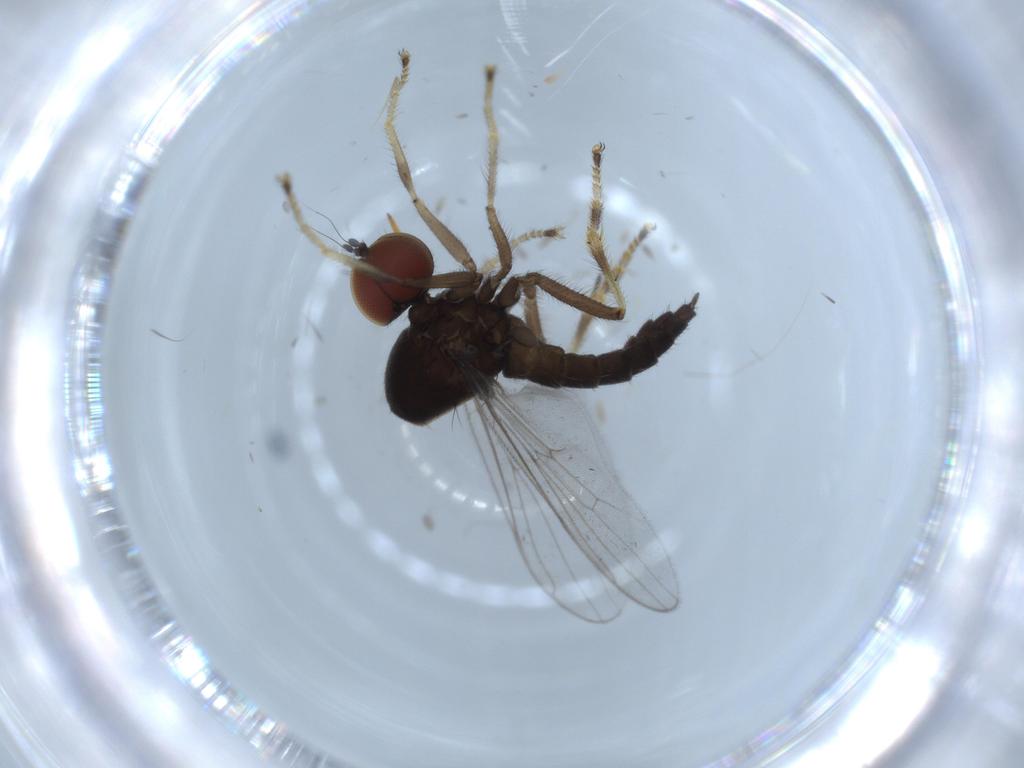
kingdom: Animalia
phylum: Arthropoda
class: Insecta
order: Diptera
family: Hybotidae
